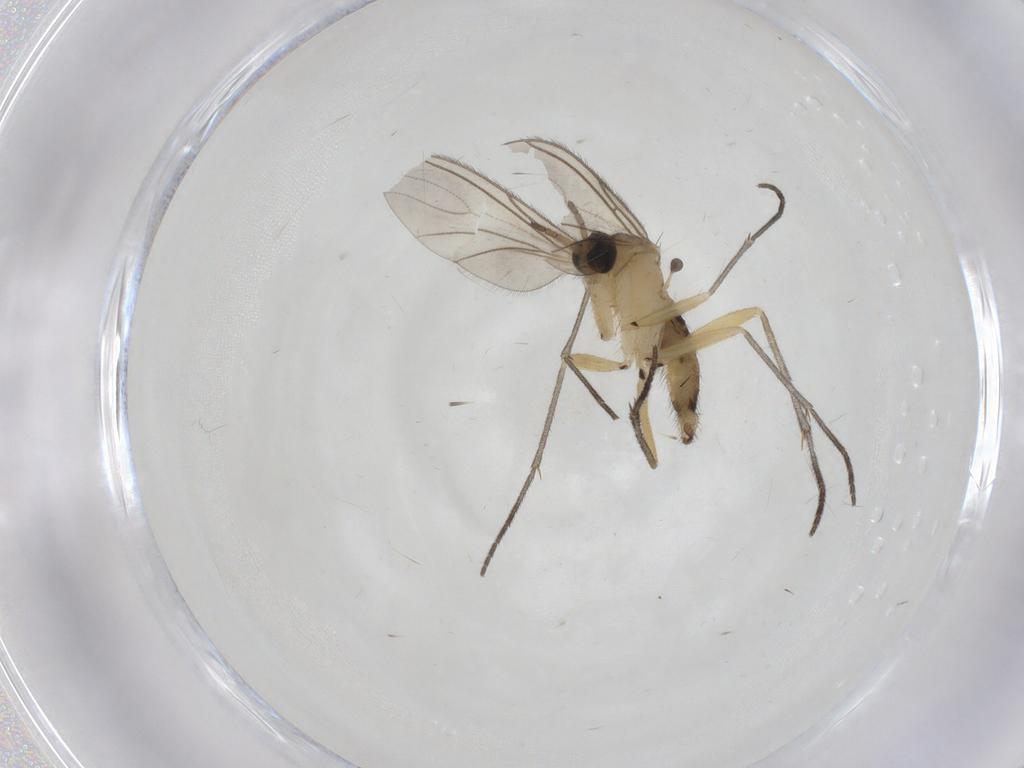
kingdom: Animalia
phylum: Arthropoda
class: Insecta
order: Diptera
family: Sciaridae
